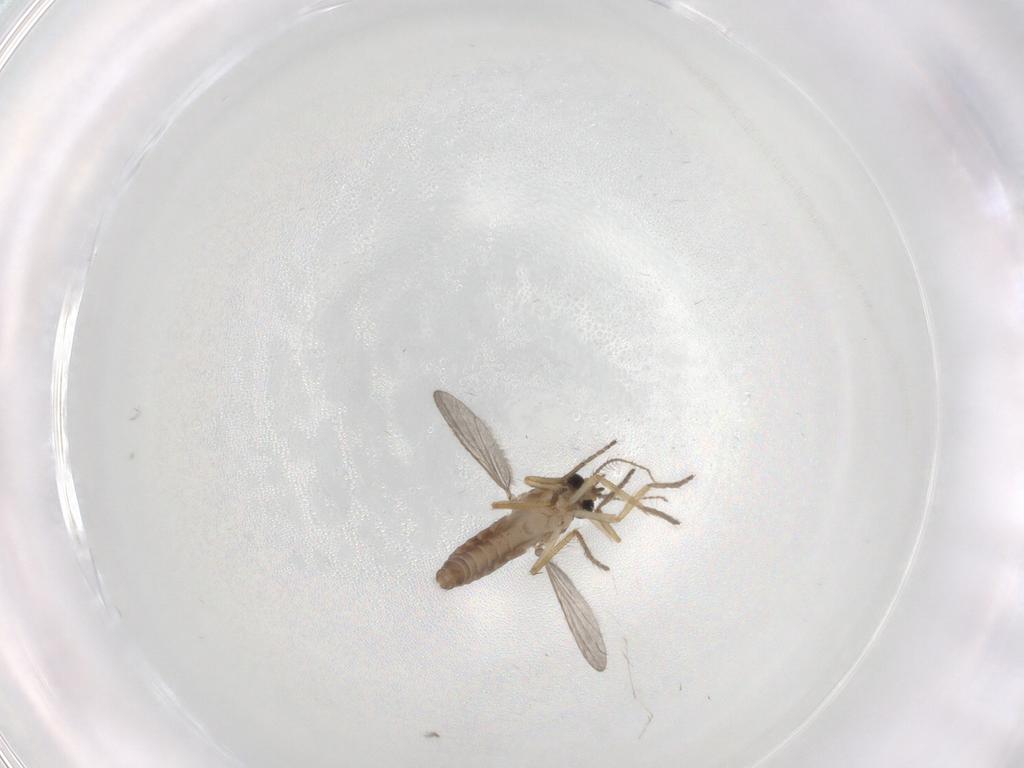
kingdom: Animalia
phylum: Arthropoda
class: Insecta
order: Diptera
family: Ceratopogonidae
